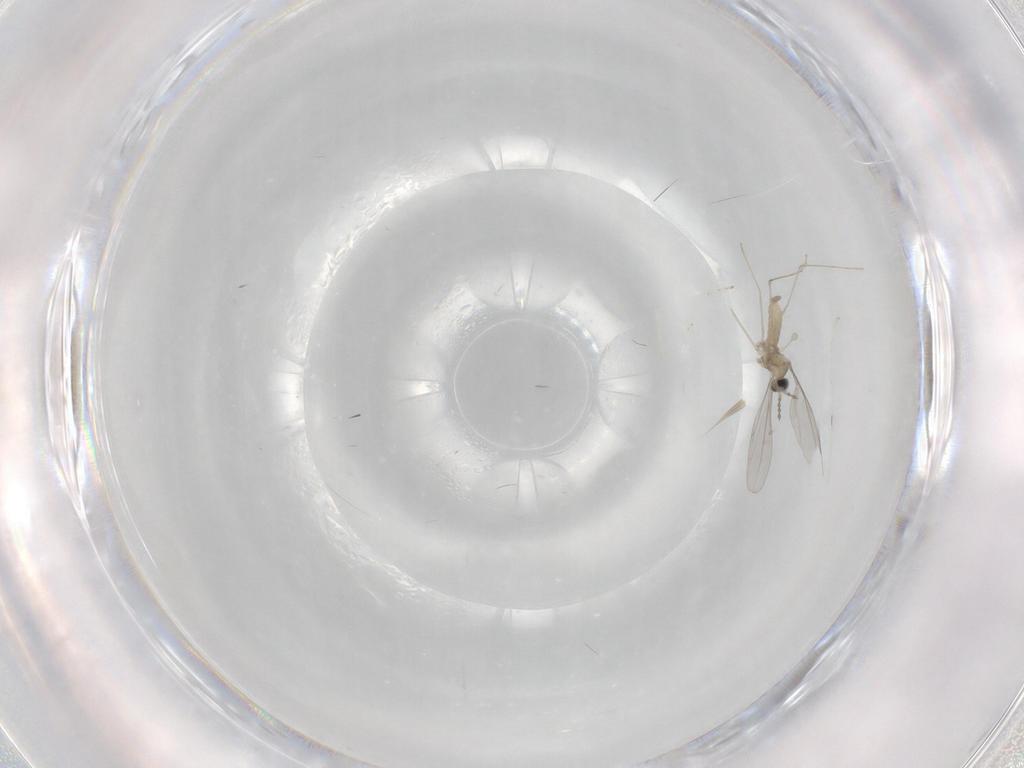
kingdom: Animalia
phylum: Arthropoda
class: Insecta
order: Diptera
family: Cecidomyiidae
